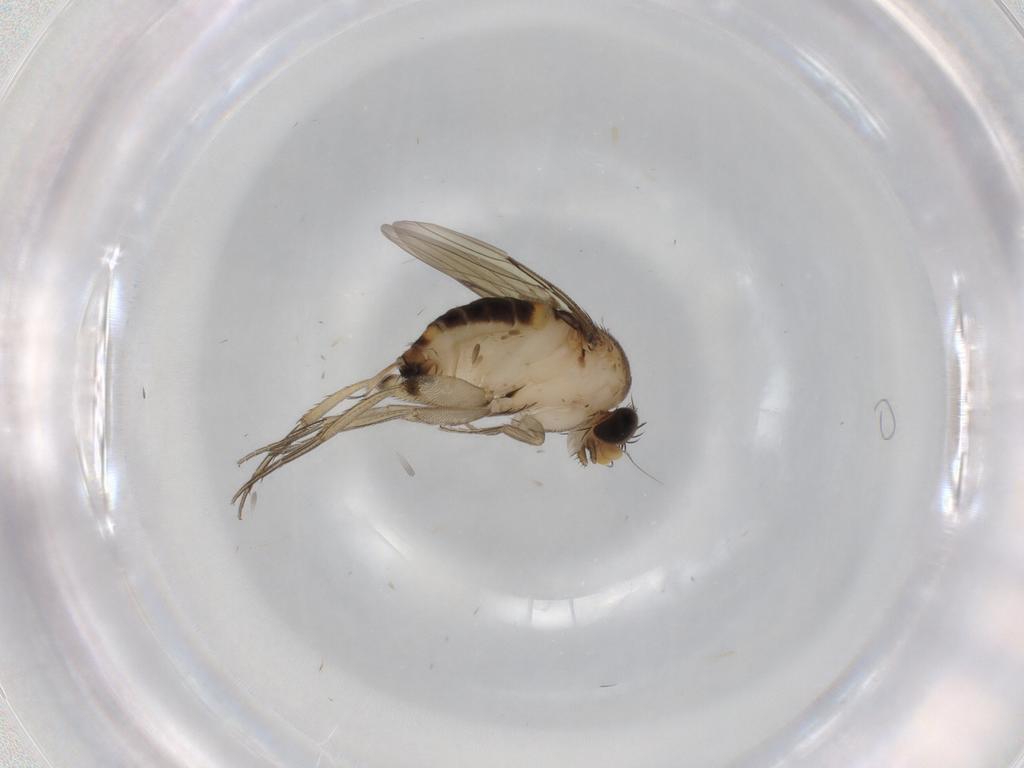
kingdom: Animalia
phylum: Arthropoda
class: Insecta
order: Diptera
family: Phoridae
